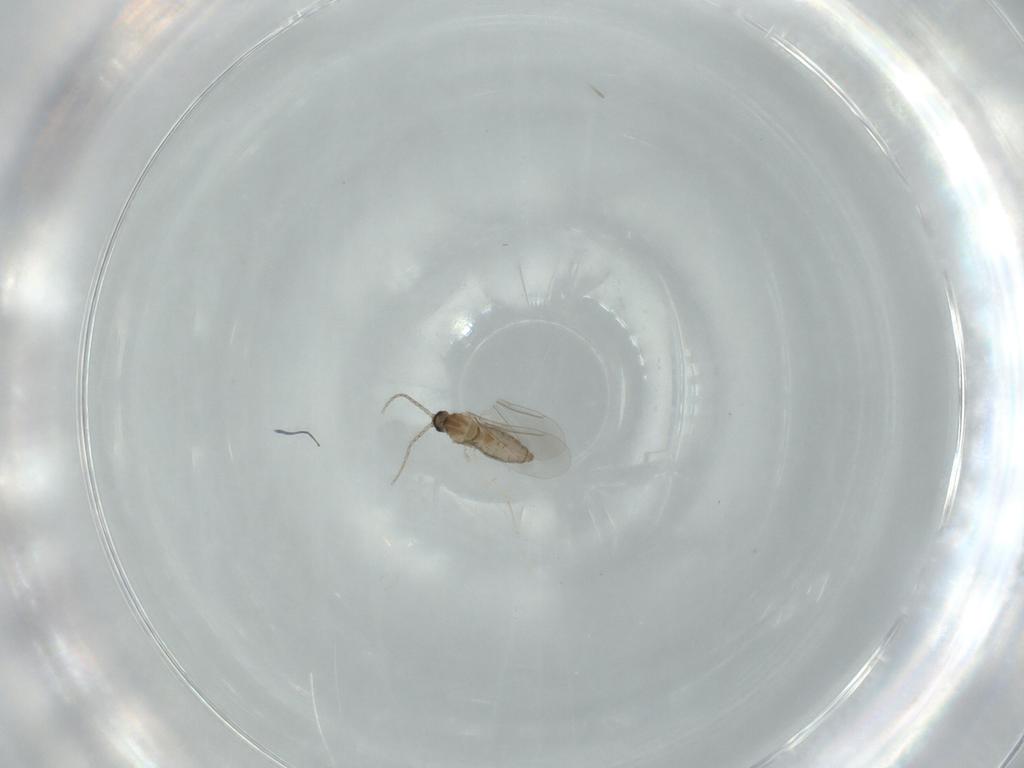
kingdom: Animalia
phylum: Arthropoda
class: Insecta
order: Diptera
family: Cecidomyiidae
